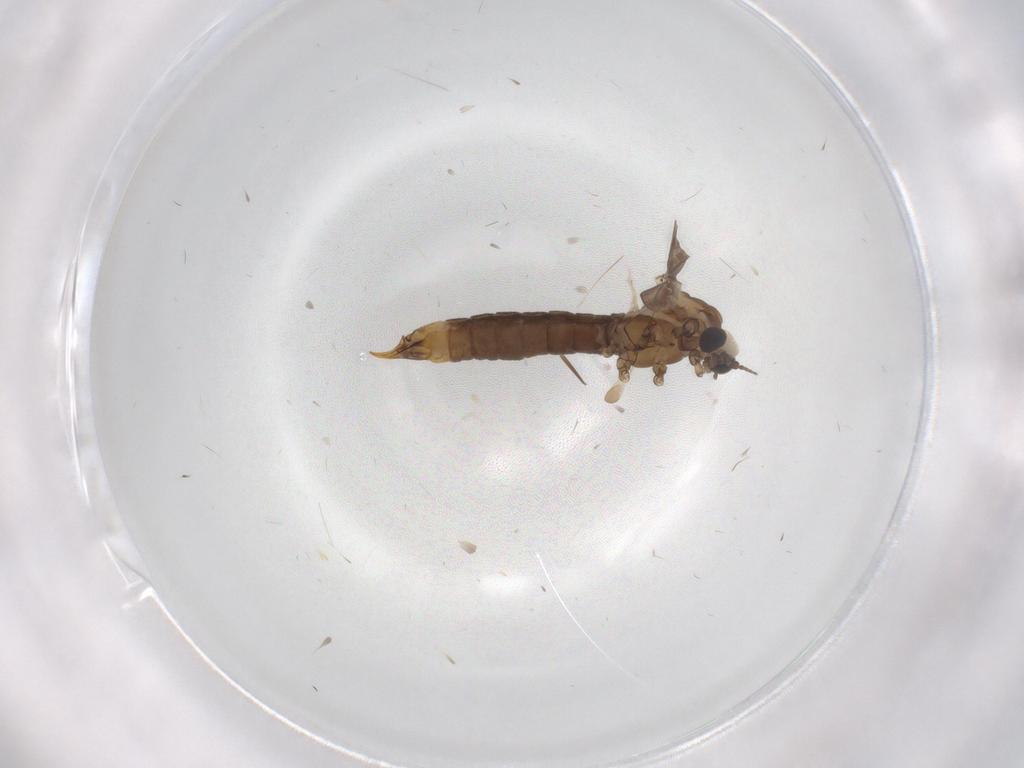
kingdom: Animalia
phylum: Arthropoda
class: Insecta
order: Diptera
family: Limoniidae
